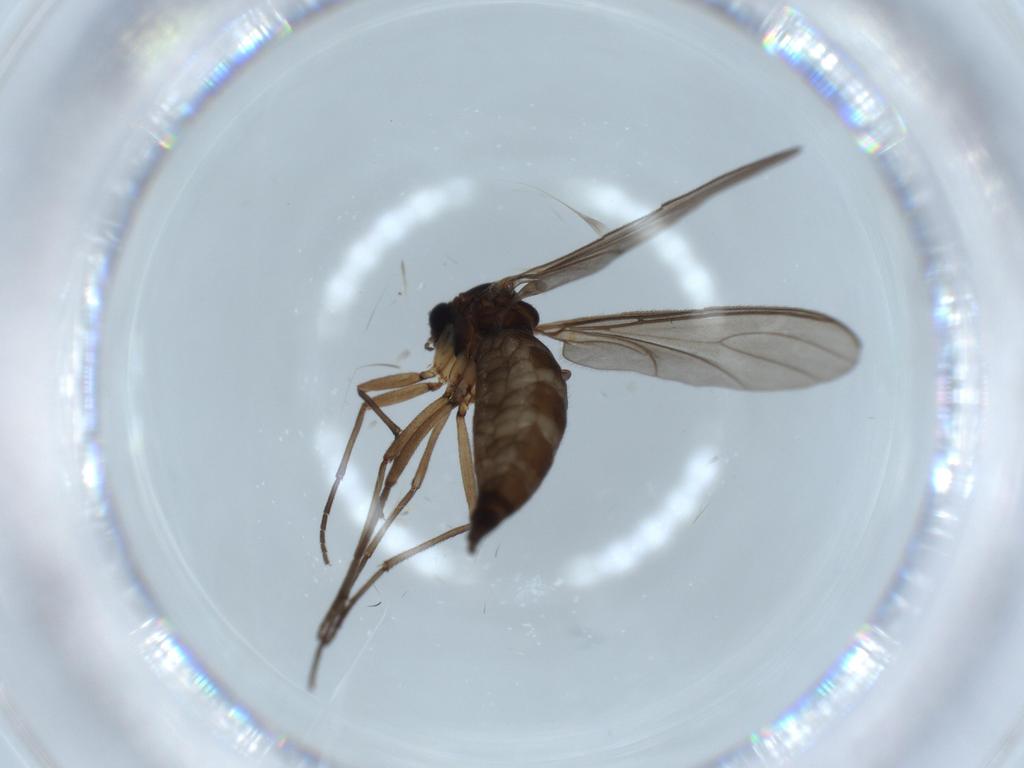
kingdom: Animalia
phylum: Arthropoda
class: Insecta
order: Diptera
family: Sciaridae
